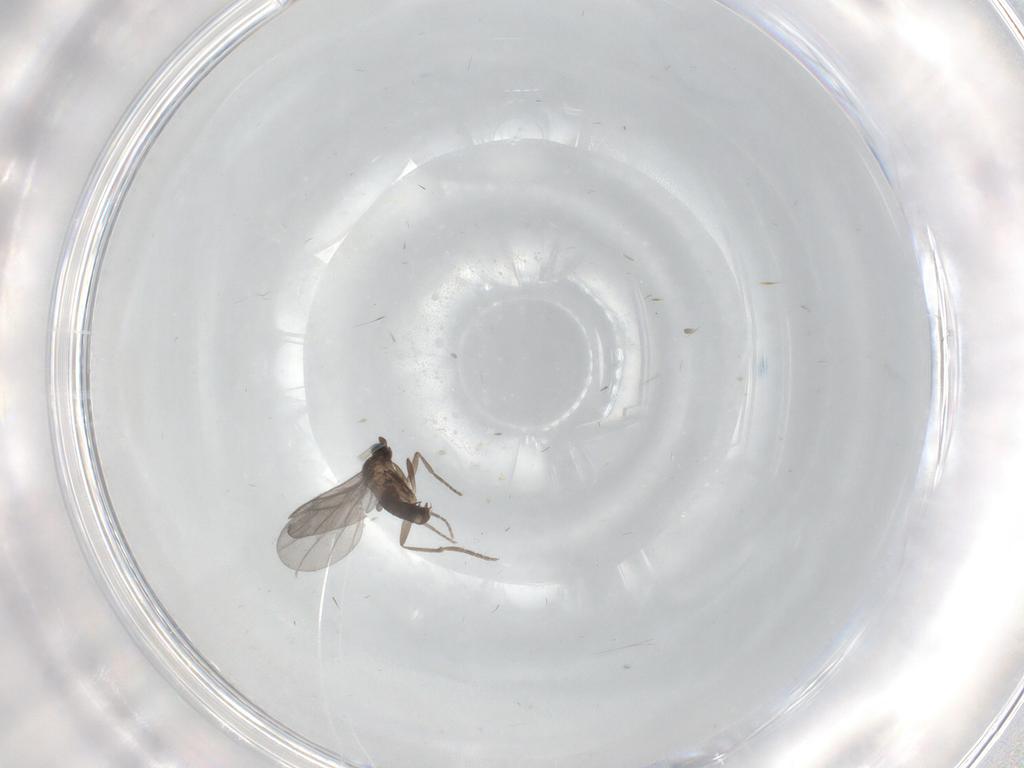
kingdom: Animalia
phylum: Arthropoda
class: Insecta
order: Diptera
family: Phoridae
